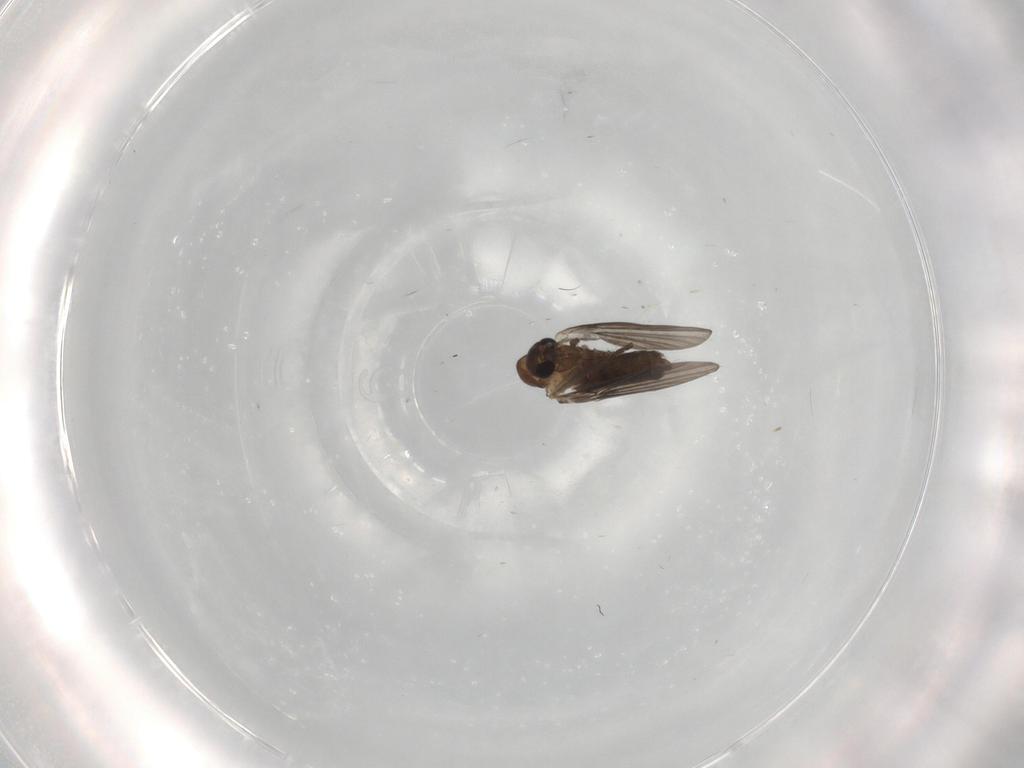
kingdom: Animalia
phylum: Arthropoda
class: Insecta
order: Diptera
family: Psychodidae
